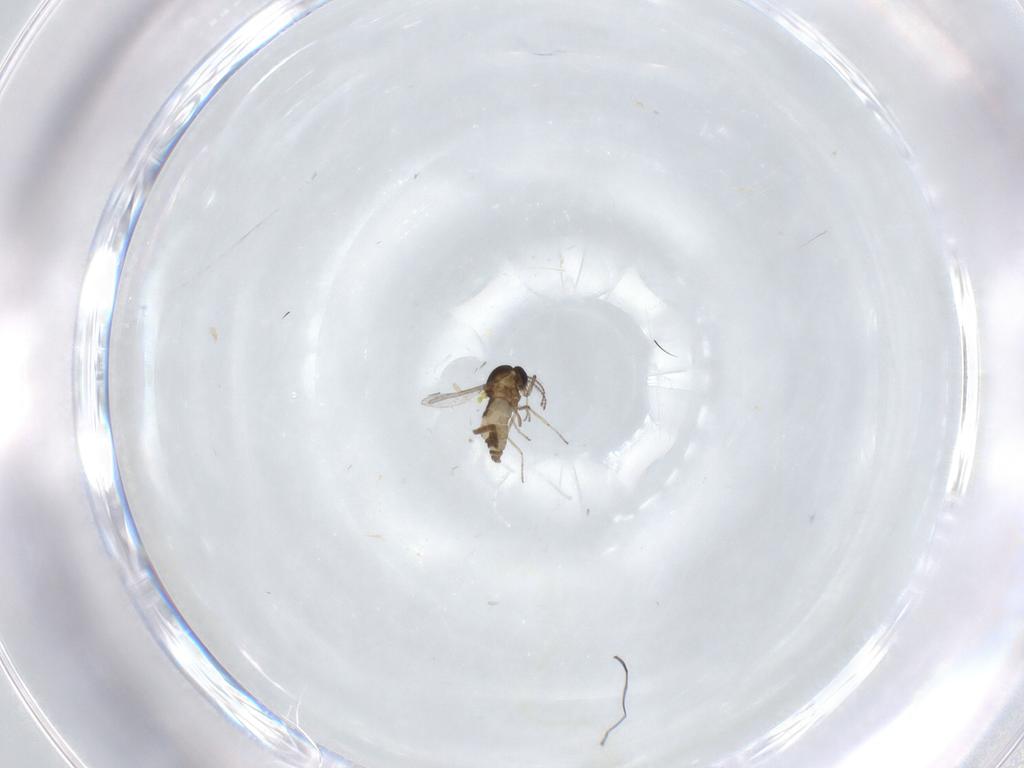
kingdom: Animalia
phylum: Arthropoda
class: Insecta
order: Diptera
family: Ceratopogonidae
